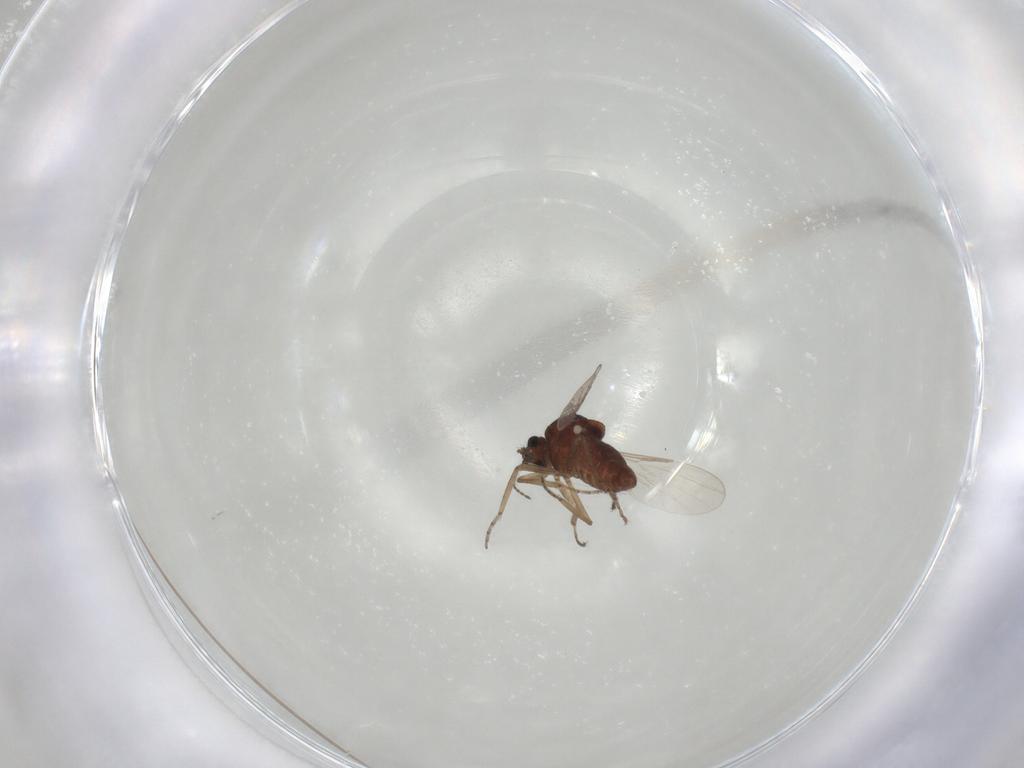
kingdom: Animalia
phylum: Arthropoda
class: Insecta
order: Diptera
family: Ceratopogonidae
